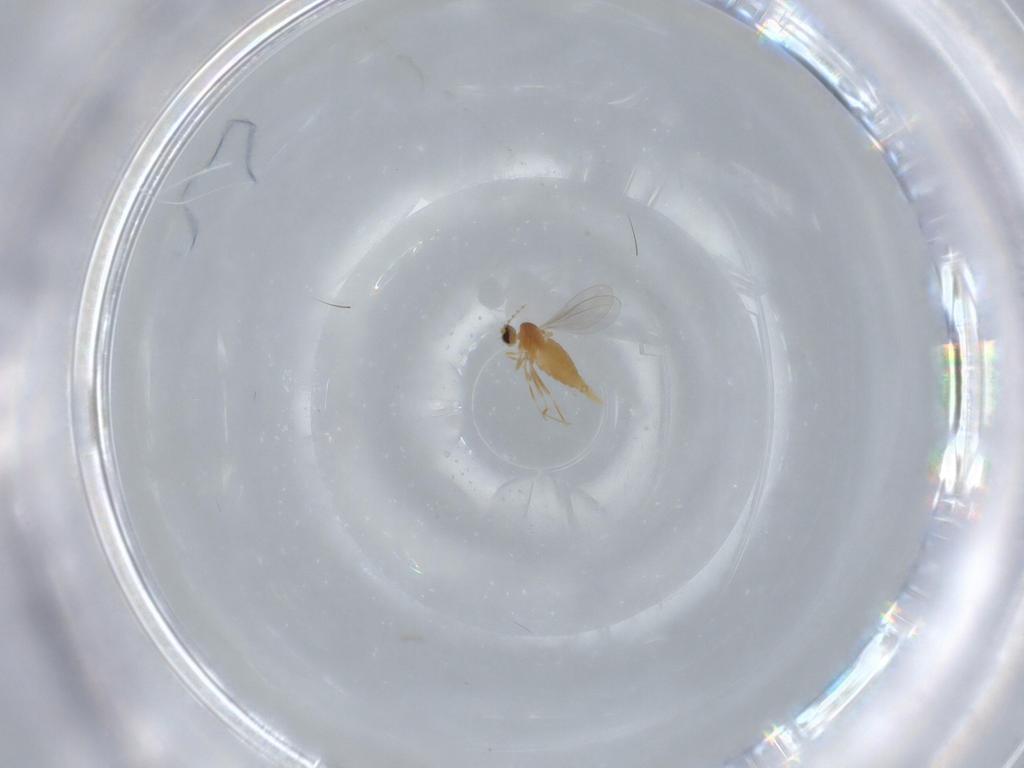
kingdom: Animalia
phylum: Arthropoda
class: Insecta
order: Diptera
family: Cecidomyiidae
